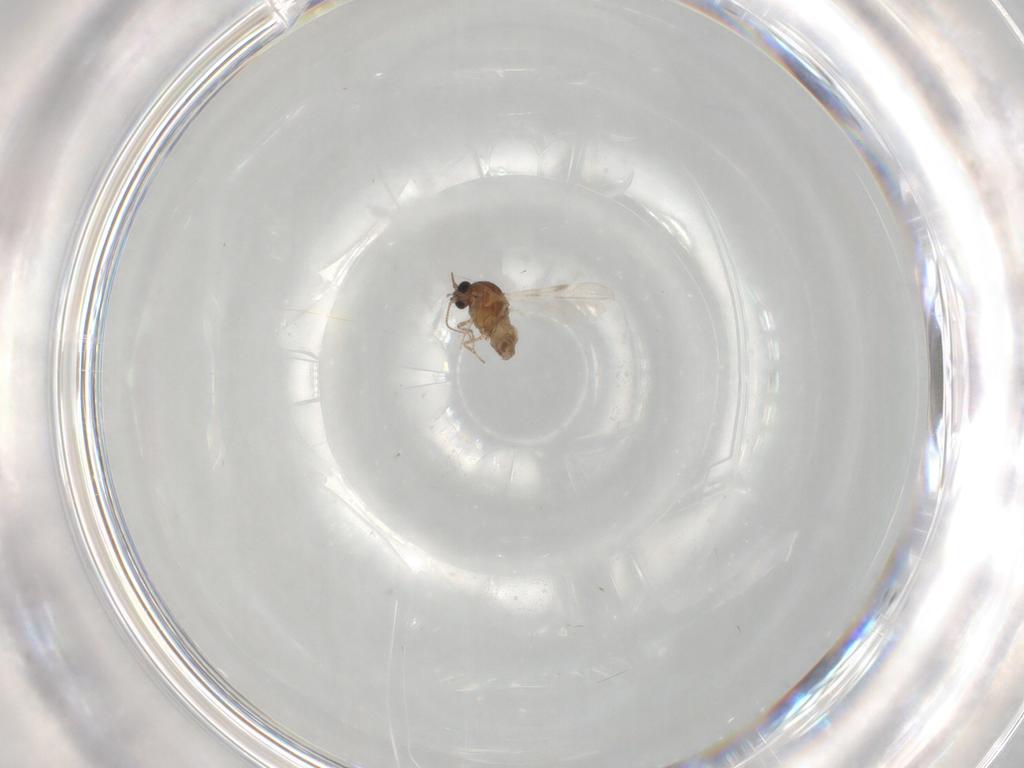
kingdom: Animalia
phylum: Arthropoda
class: Insecta
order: Diptera
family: Ceratopogonidae
